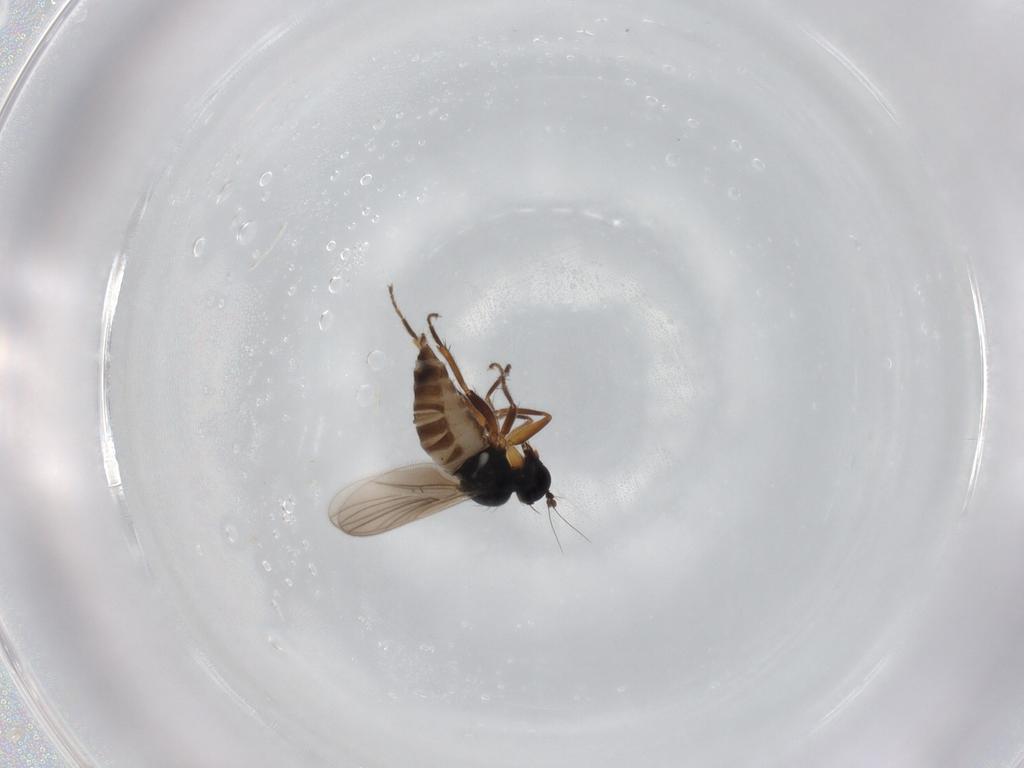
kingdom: Animalia
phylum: Arthropoda
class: Insecta
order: Diptera
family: Hybotidae
